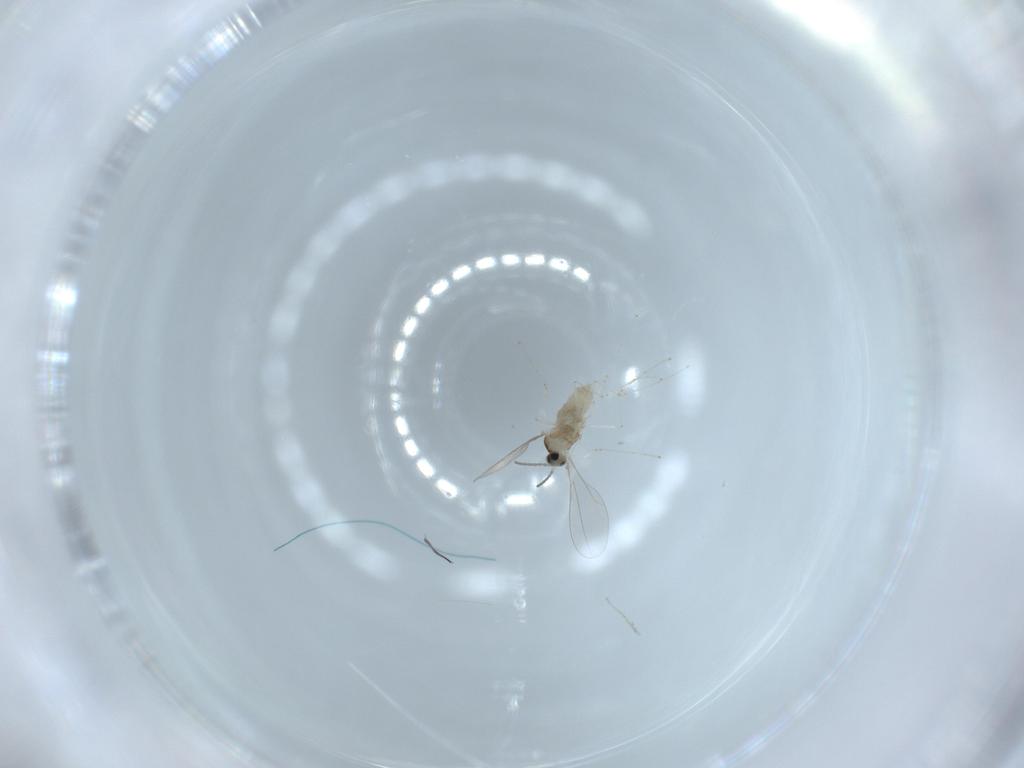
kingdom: Animalia
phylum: Arthropoda
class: Insecta
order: Diptera
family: Cecidomyiidae
